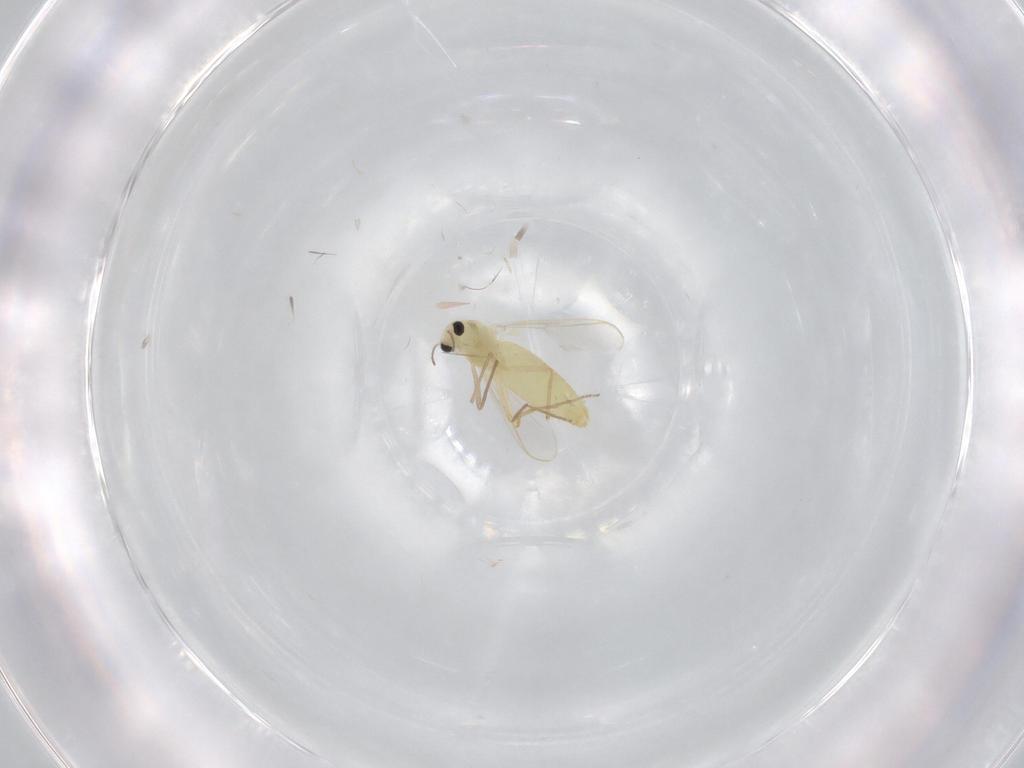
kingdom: Animalia
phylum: Arthropoda
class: Insecta
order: Diptera
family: Chironomidae
